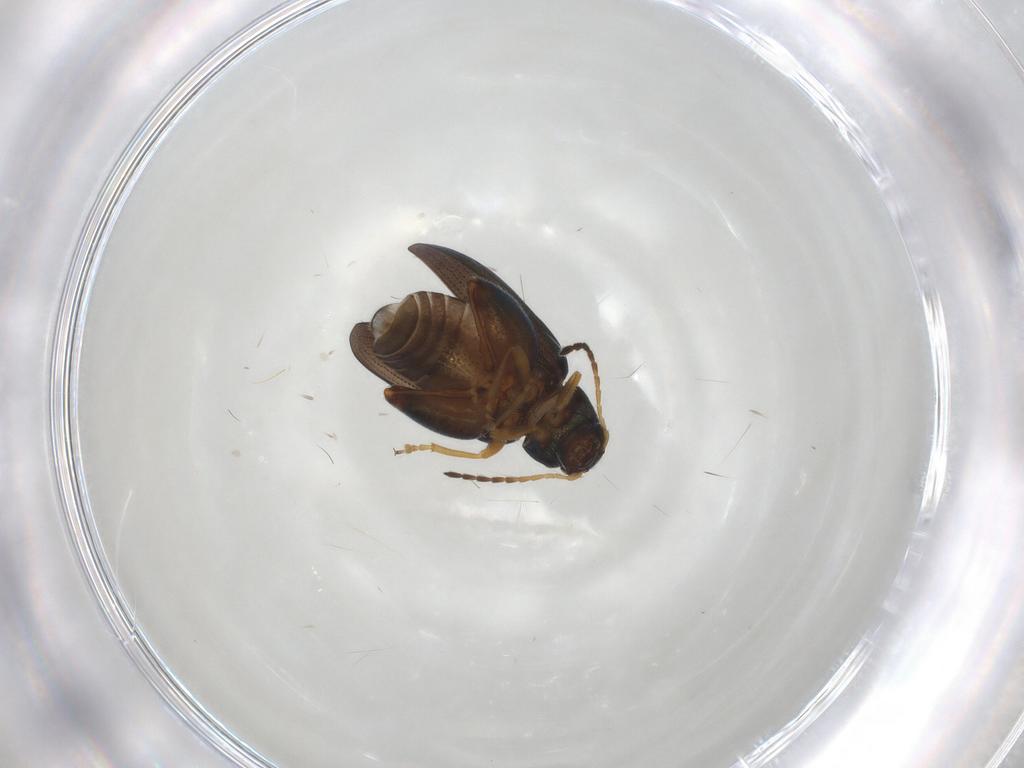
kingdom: Animalia
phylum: Arthropoda
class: Insecta
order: Coleoptera
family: Chrysomelidae
